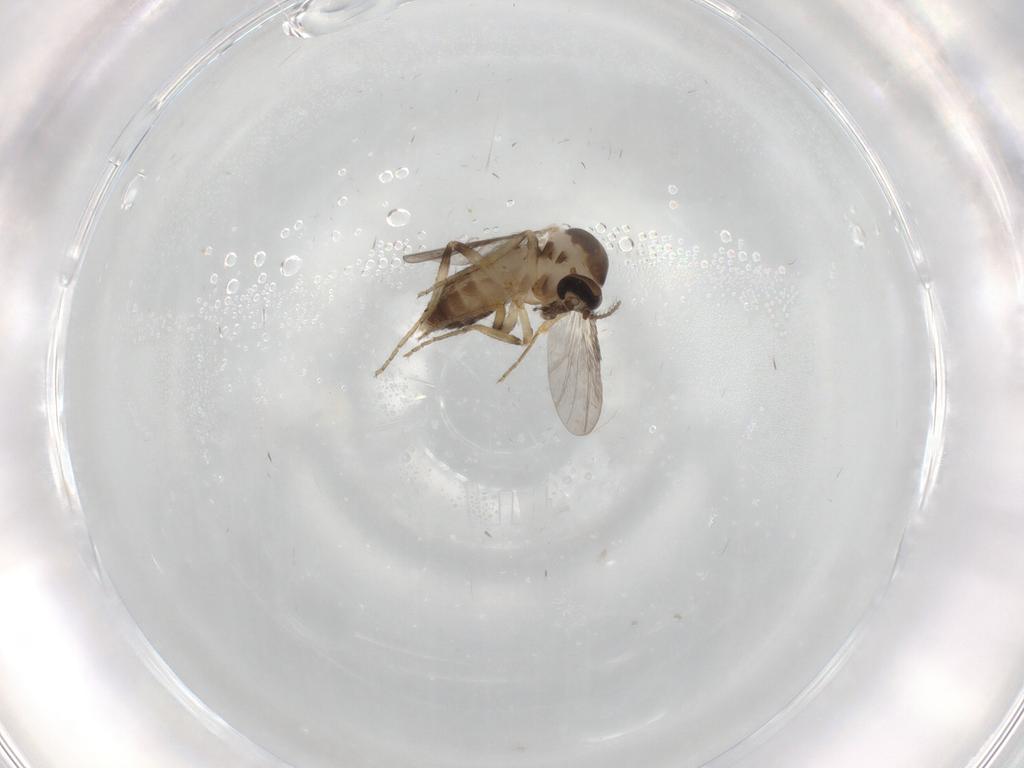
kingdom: Animalia
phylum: Arthropoda
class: Insecta
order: Diptera
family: Ceratopogonidae
